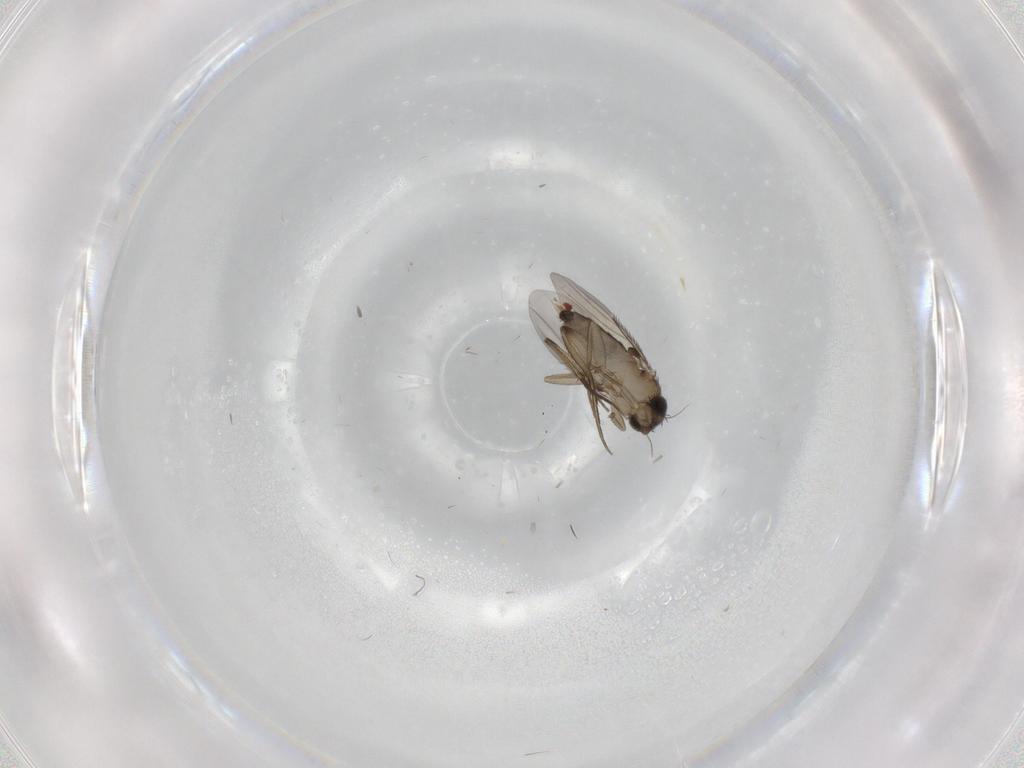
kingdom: Animalia
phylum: Arthropoda
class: Insecta
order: Diptera
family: Phoridae
